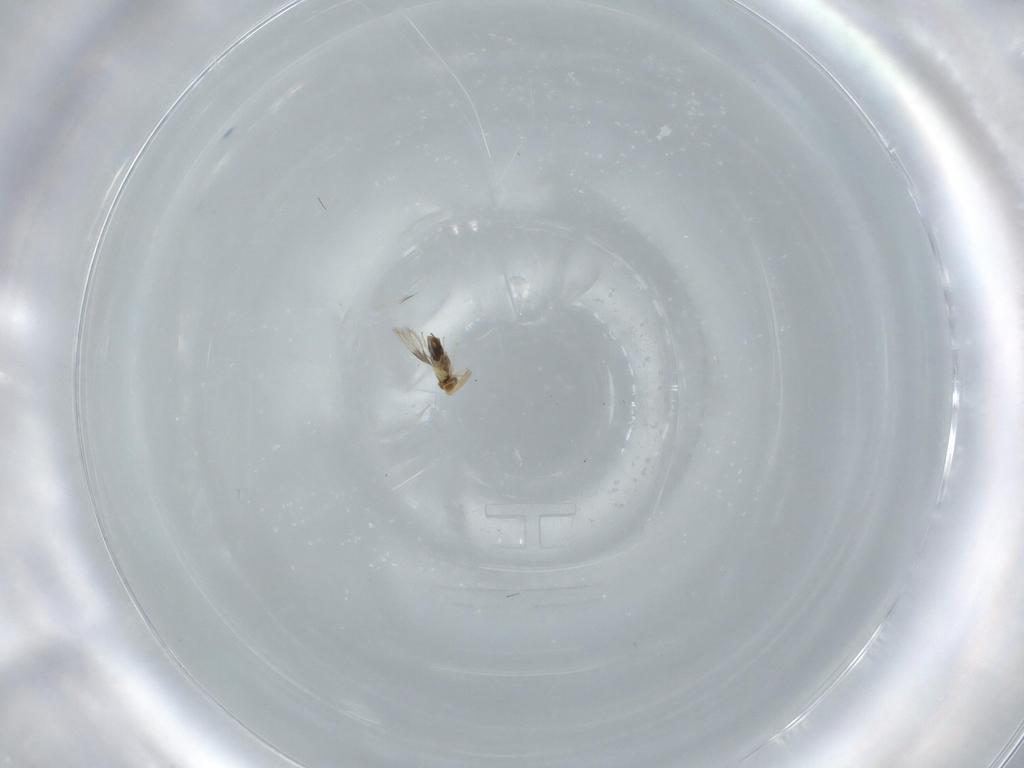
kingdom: Animalia
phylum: Arthropoda
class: Insecta
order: Hymenoptera
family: Aphelinidae
